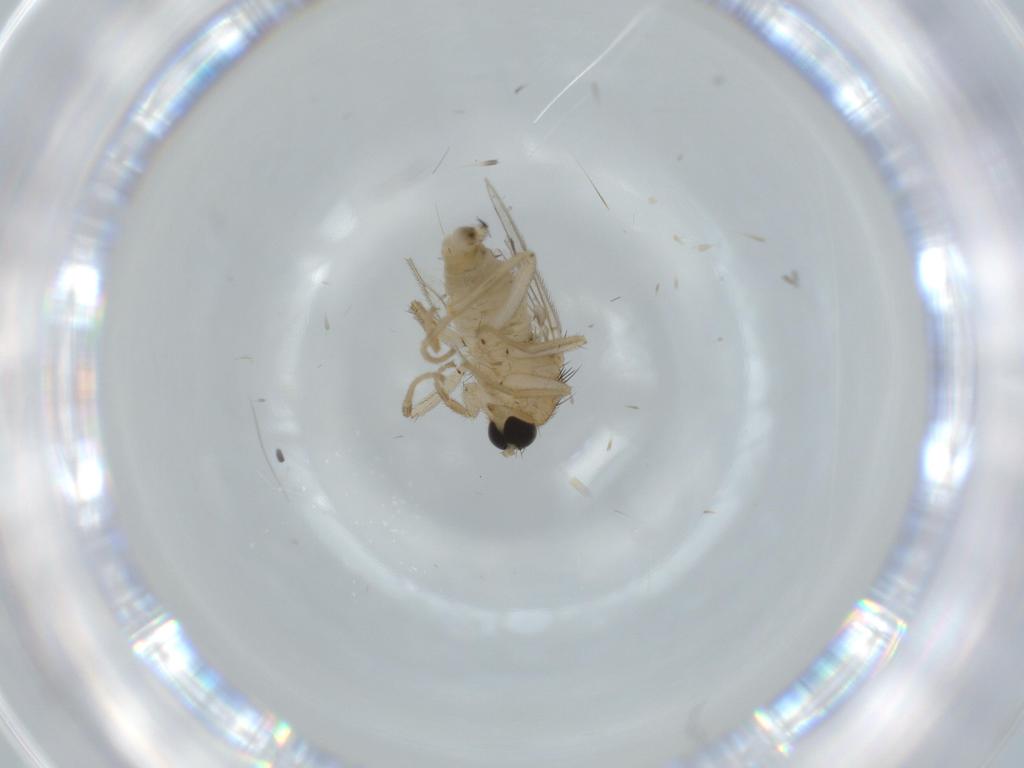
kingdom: Animalia
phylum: Arthropoda
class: Insecta
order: Diptera
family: Hybotidae
